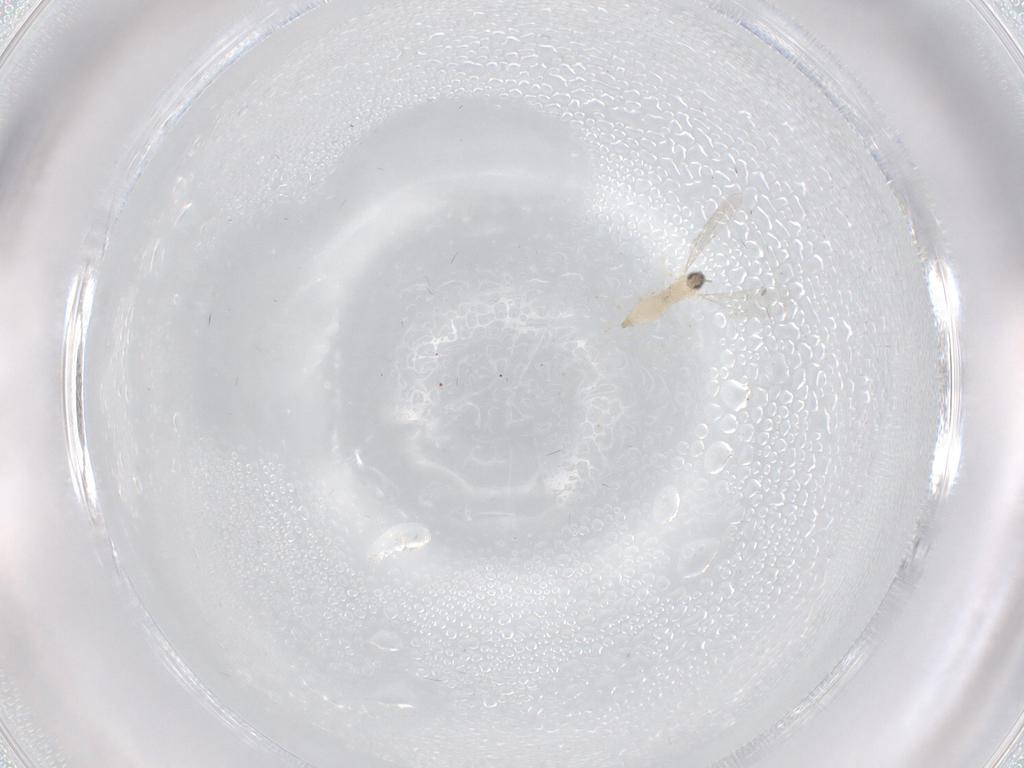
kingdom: Animalia
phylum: Arthropoda
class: Insecta
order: Diptera
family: Cecidomyiidae
